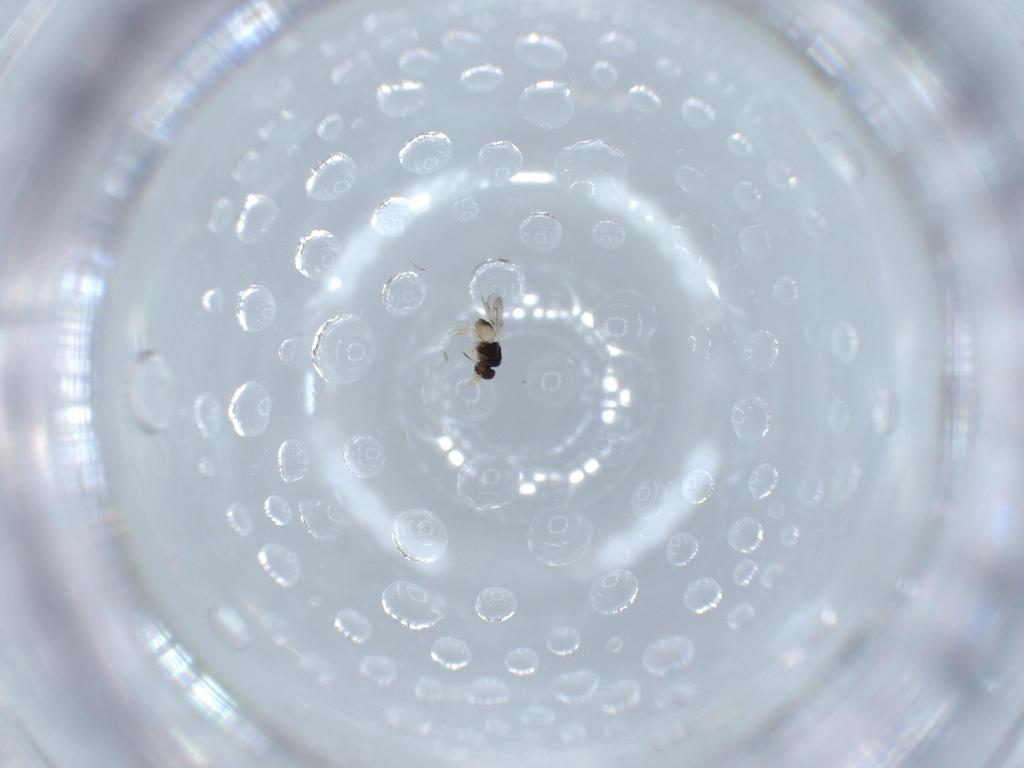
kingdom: Animalia
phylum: Arthropoda
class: Insecta
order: Hymenoptera
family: Ceraphronidae
